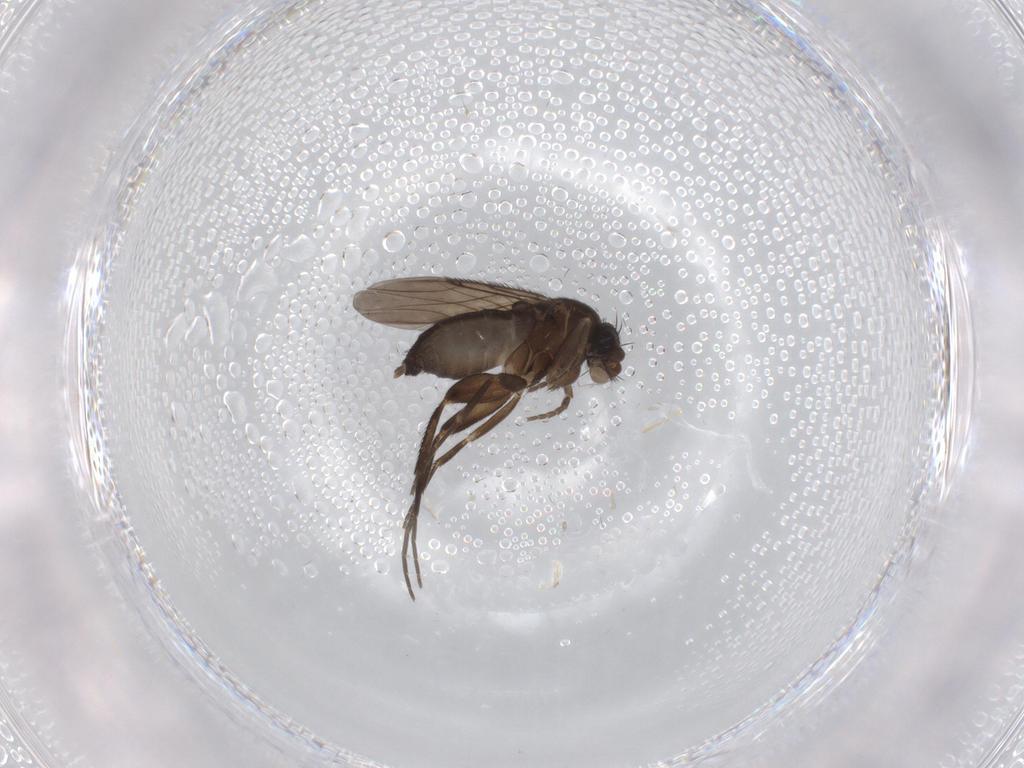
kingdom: Animalia
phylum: Arthropoda
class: Insecta
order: Diptera
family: Phoridae
